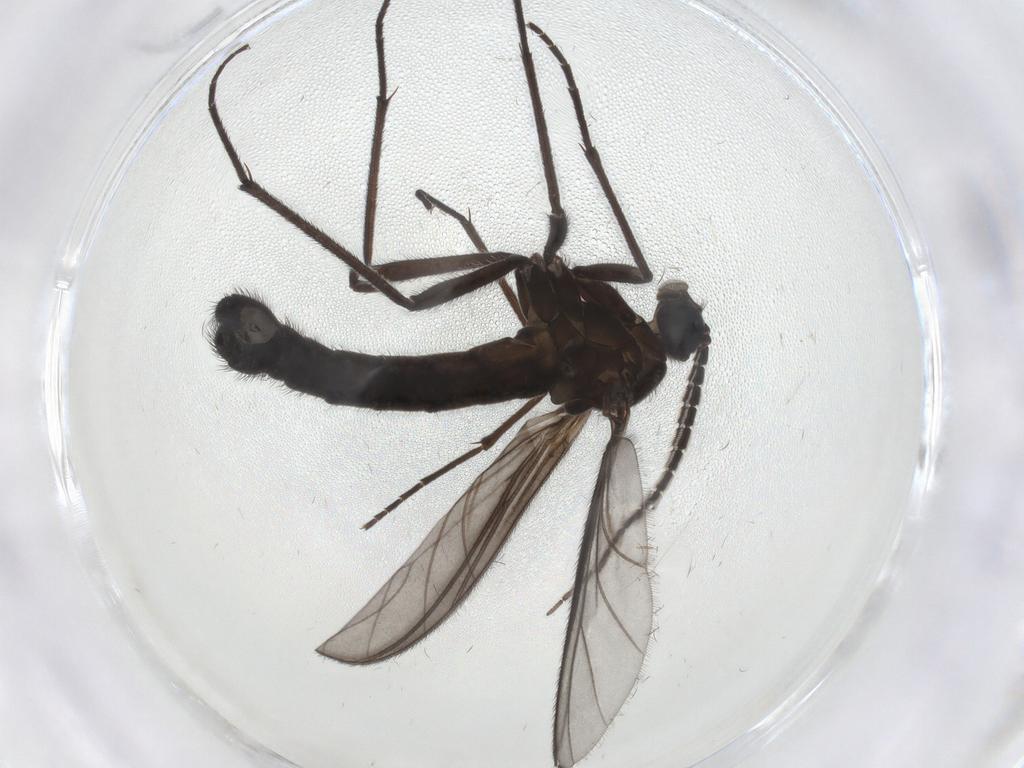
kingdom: Animalia
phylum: Arthropoda
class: Insecta
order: Diptera
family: Cecidomyiidae
